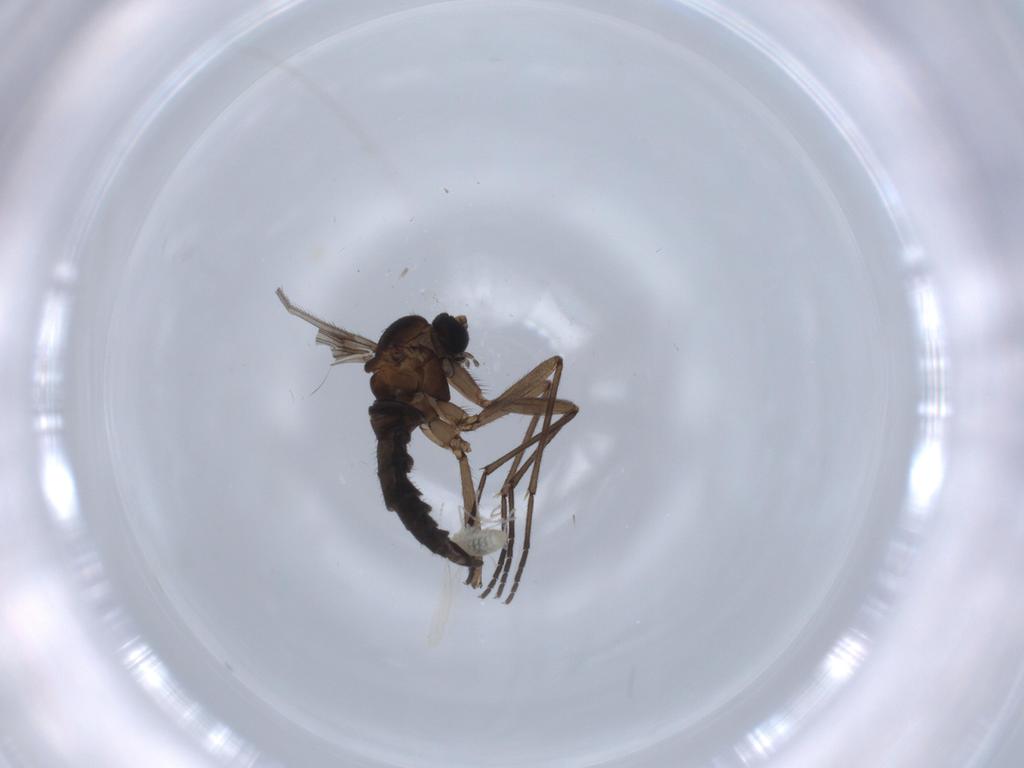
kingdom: Animalia
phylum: Arthropoda
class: Insecta
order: Diptera
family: Cecidomyiidae
